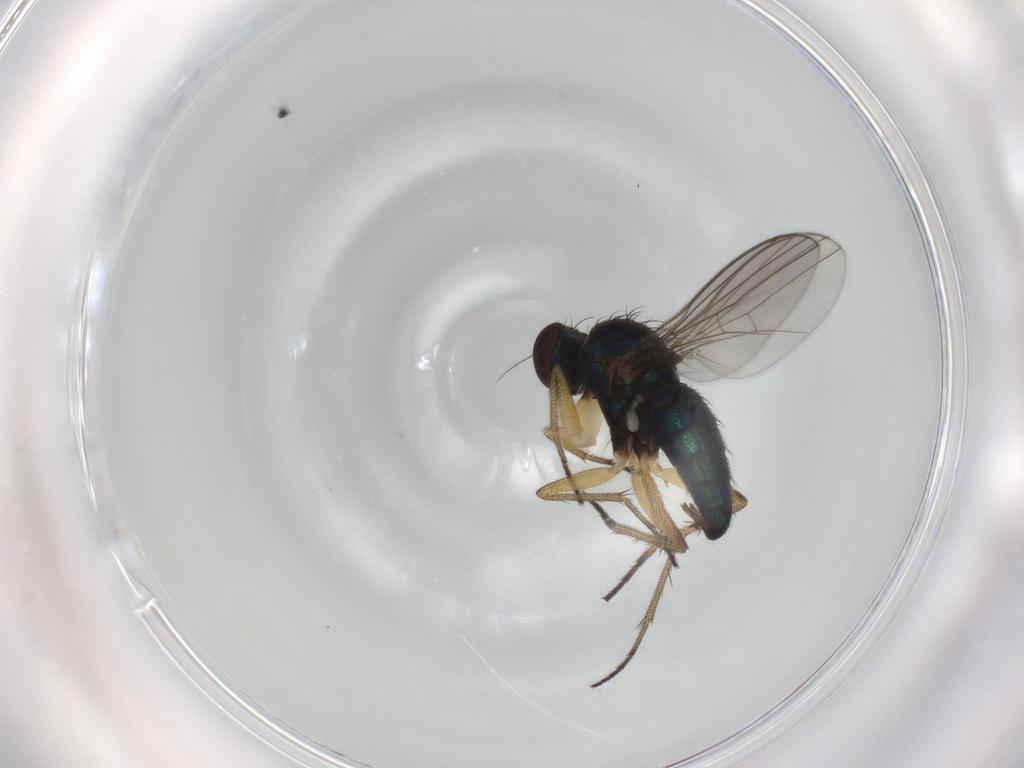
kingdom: Animalia
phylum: Arthropoda
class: Insecta
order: Diptera
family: Dolichopodidae
